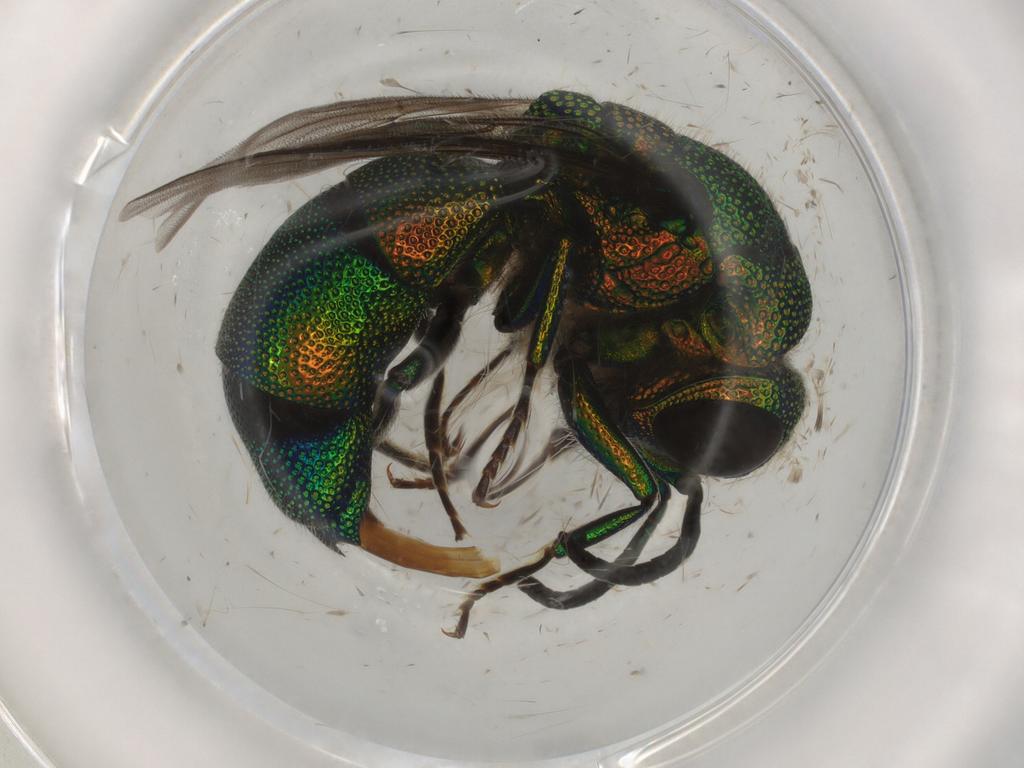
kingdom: Animalia
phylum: Arthropoda
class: Insecta
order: Hymenoptera
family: Chrysididae
